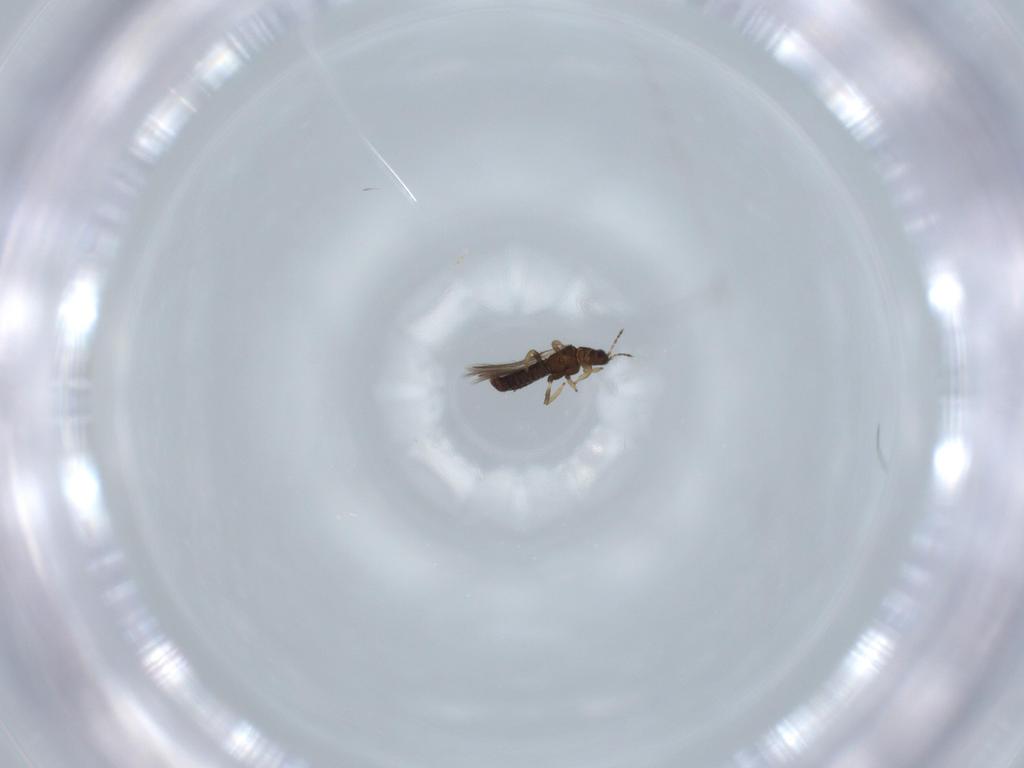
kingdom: Animalia
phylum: Arthropoda
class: Insecta
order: Thysanoptera
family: Thripidae
